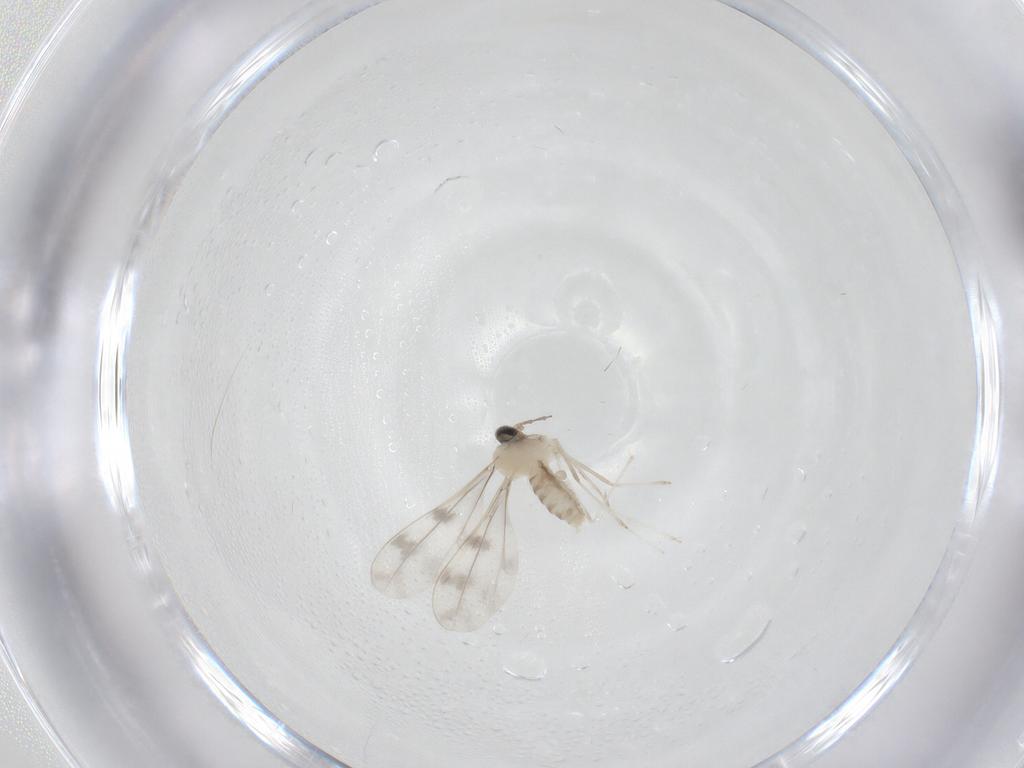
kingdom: Animalia
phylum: Arthropoda
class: Insecta
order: Diptera
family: Cecidomyiidae
